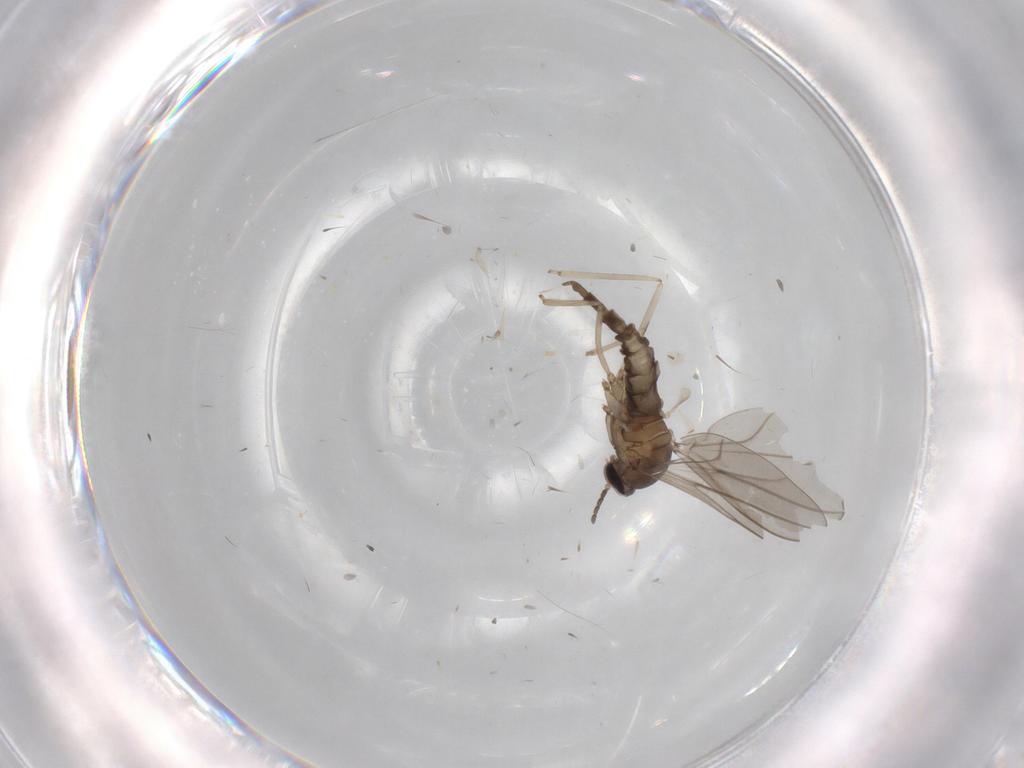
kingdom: Animalia
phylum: Arthropoda
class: Insecta
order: Diptera
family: Cecidomyiidae
